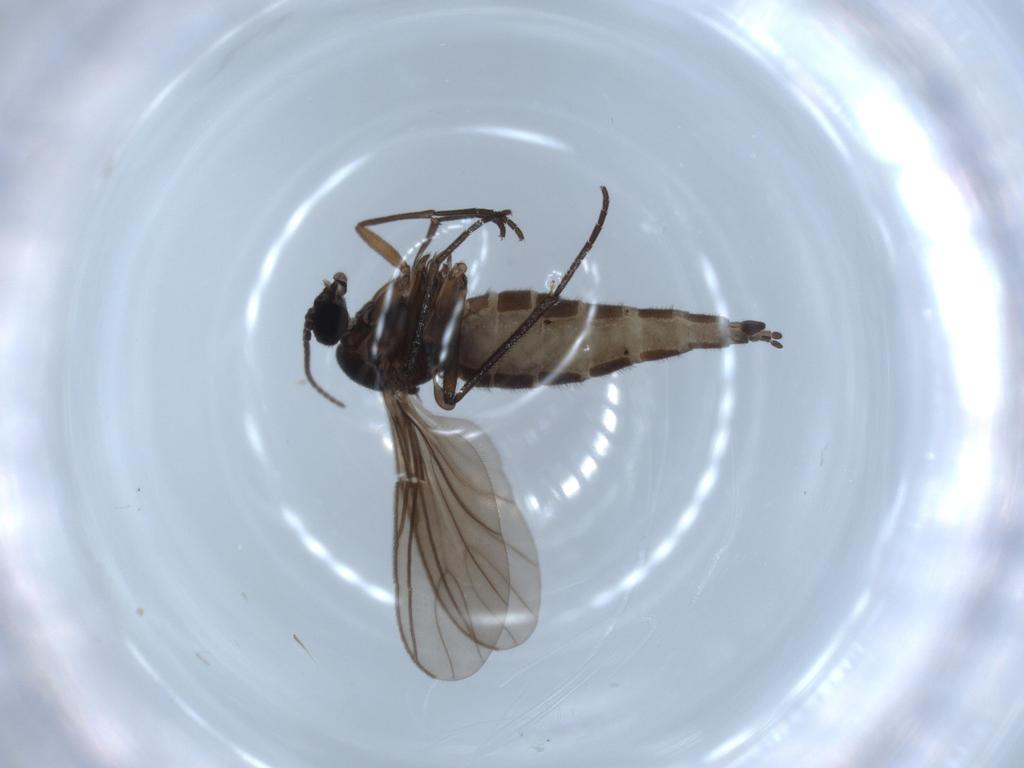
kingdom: Animalia
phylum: Arthropoda
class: Insecta
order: Diptera
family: Sciaridae
